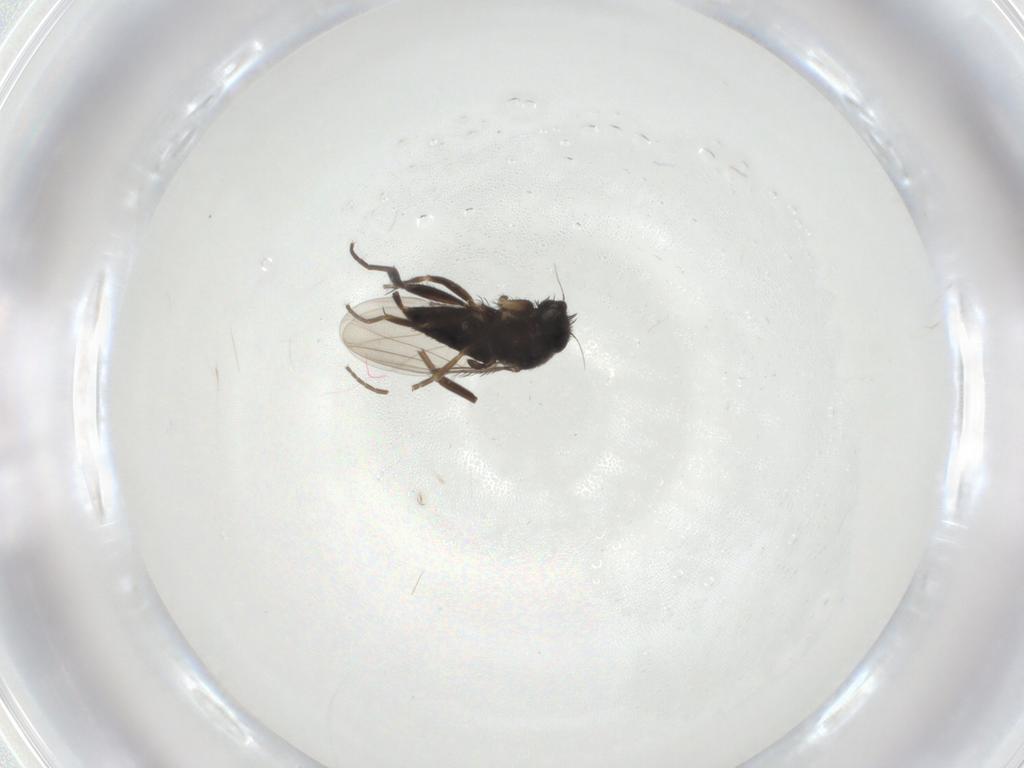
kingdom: Animalia
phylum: Arthropoda
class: Insecta
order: Diptera
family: Phoridae
